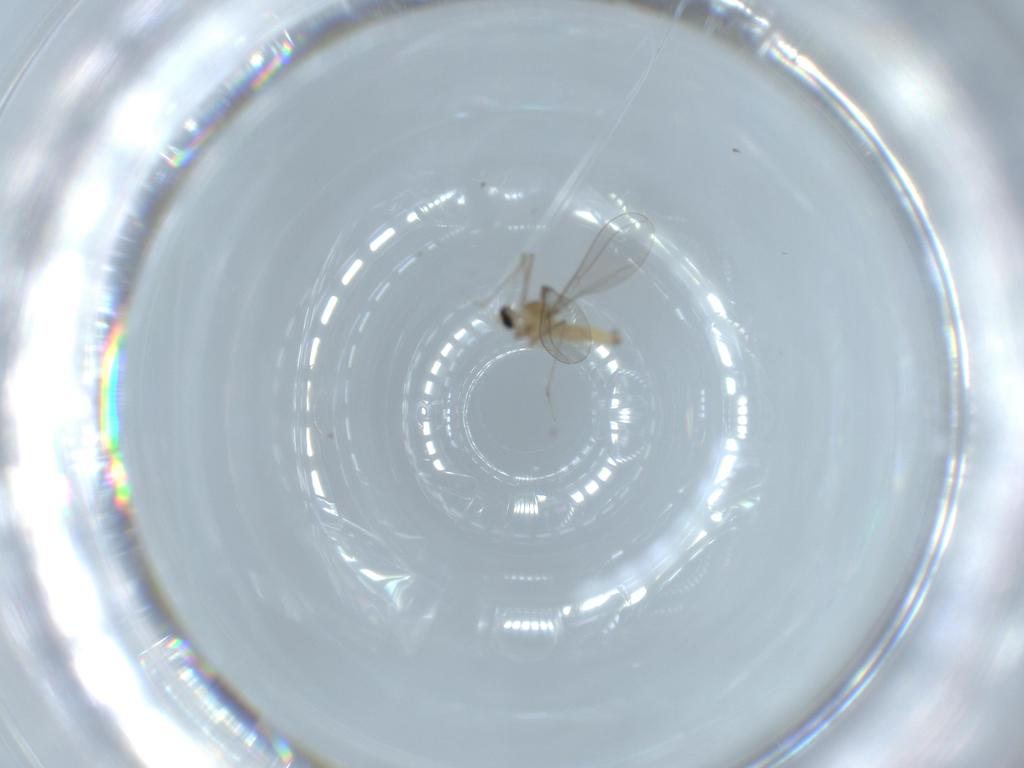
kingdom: Animalia
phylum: Arthropoda
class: Insecta
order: Diptera
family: Cecidomyiidae
